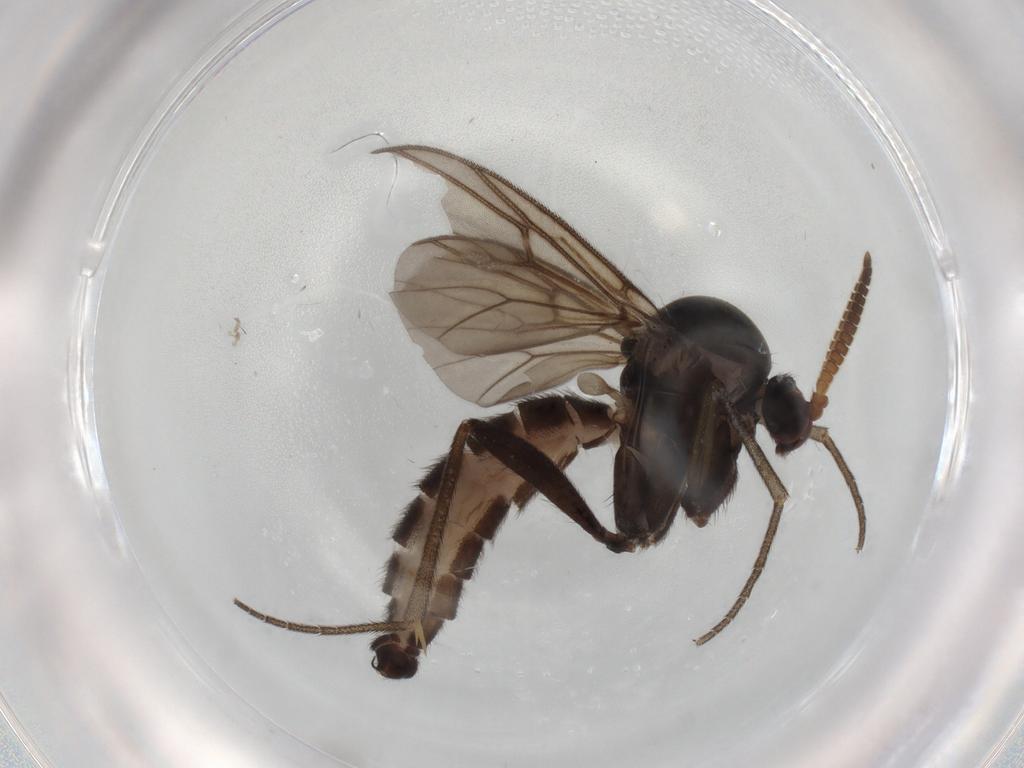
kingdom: Animalia
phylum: Arthropoda
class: Insecta
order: Diptera
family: Mycetophilidae
